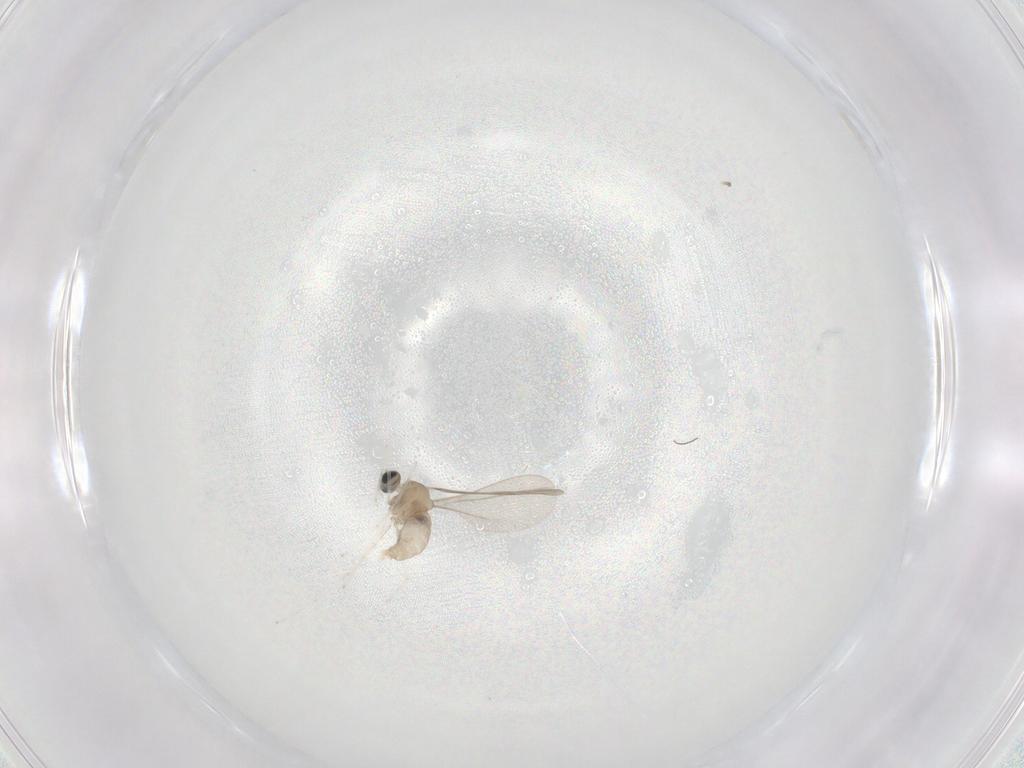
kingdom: Animalia
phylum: Arthropoda
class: Insecta
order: Diptera
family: Cecidomyiidae
